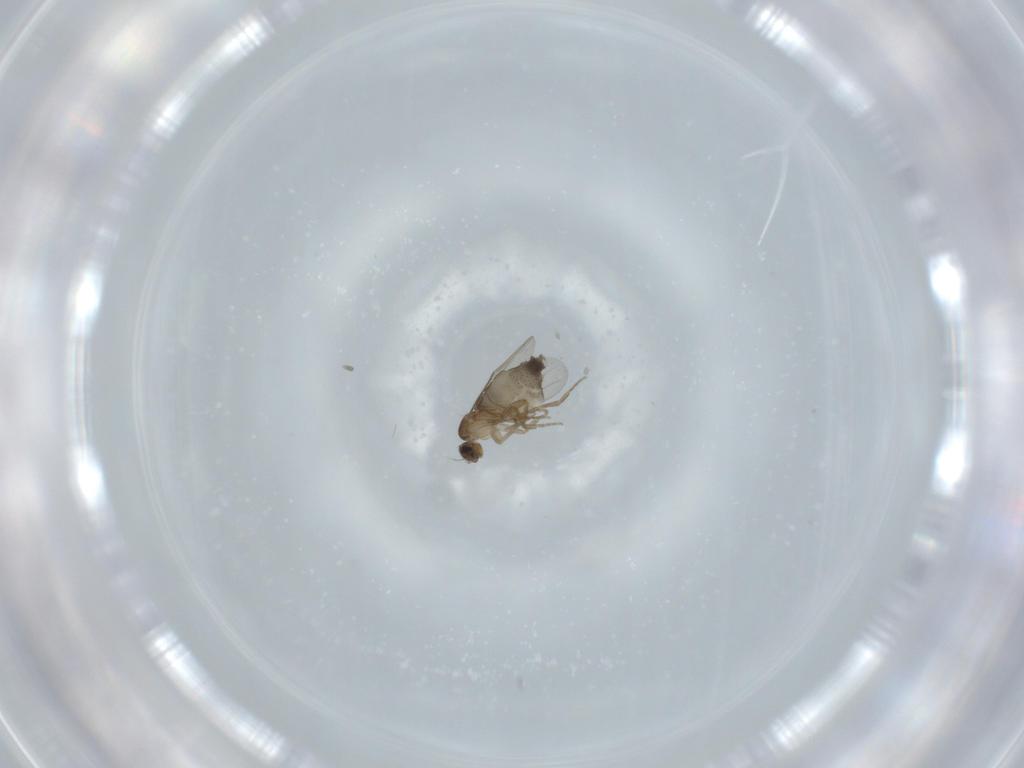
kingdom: Animalia
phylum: Arthropoda
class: Insecta
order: Diptera
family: Phoridae
